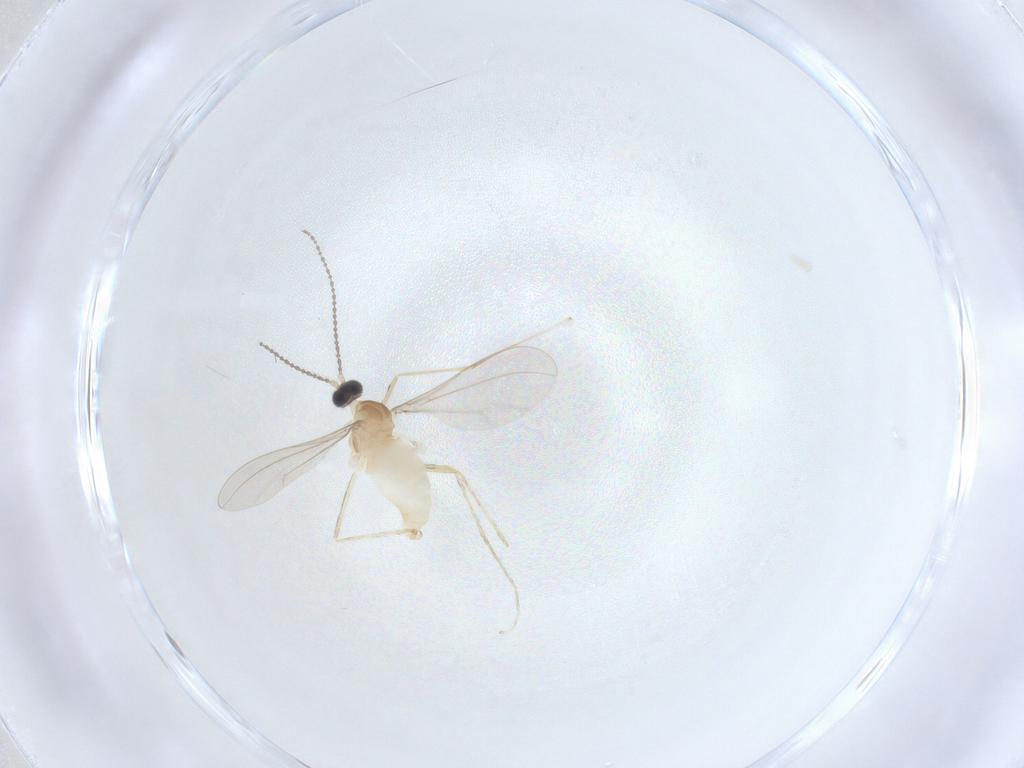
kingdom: Animalia
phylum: Arthropoda
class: Insecta
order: Diptera
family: Cecidomyiidae
